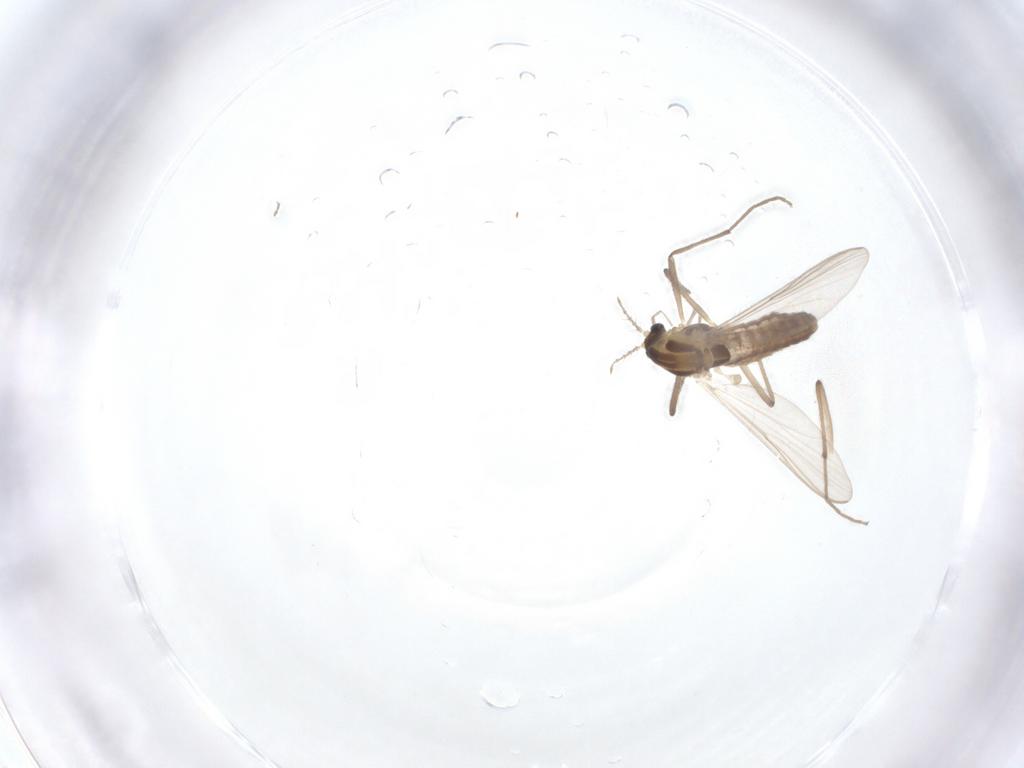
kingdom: Animalia
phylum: Arthropoda
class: Insecta
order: Diptera
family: Chironomidae
